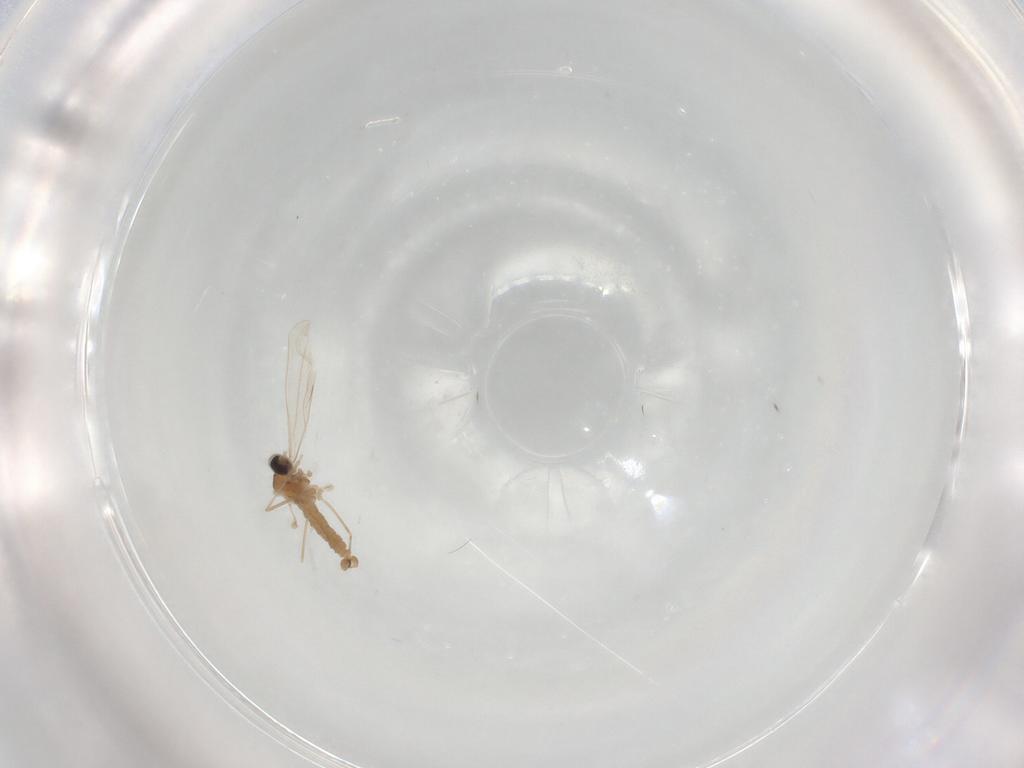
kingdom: Animalia
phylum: Arthropoda
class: Insecta
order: Diptera
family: Cecidomyiidae
